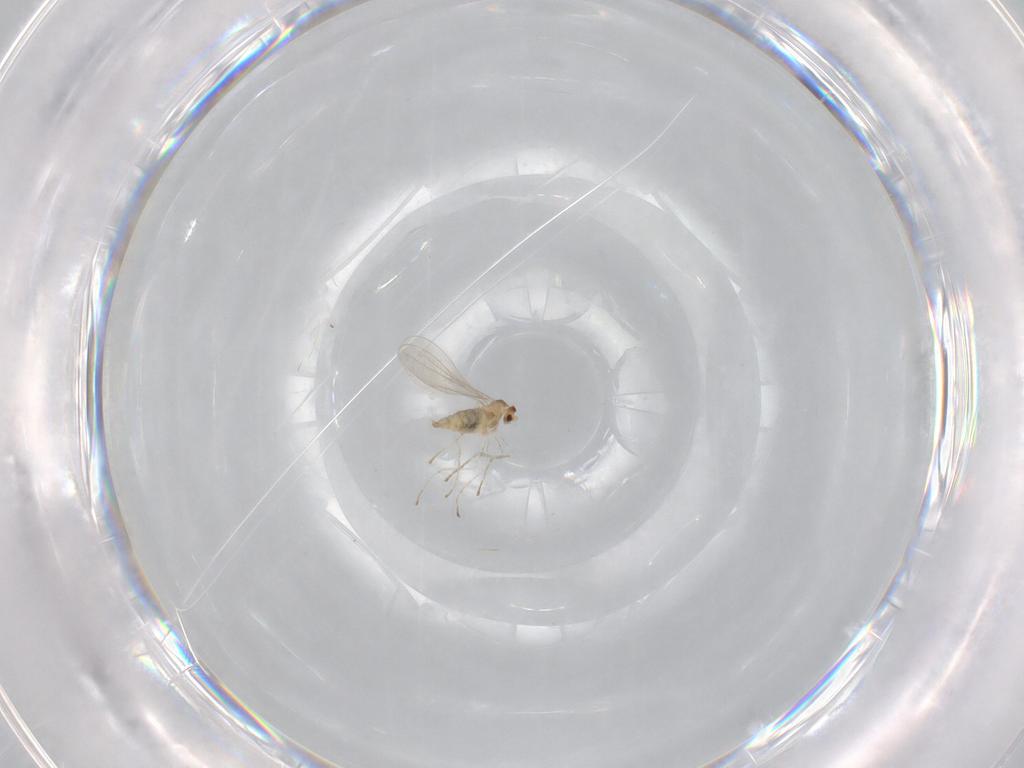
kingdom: Animalia
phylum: Arthropoda
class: Insecta
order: Diptera
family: Cecidomyiidae
